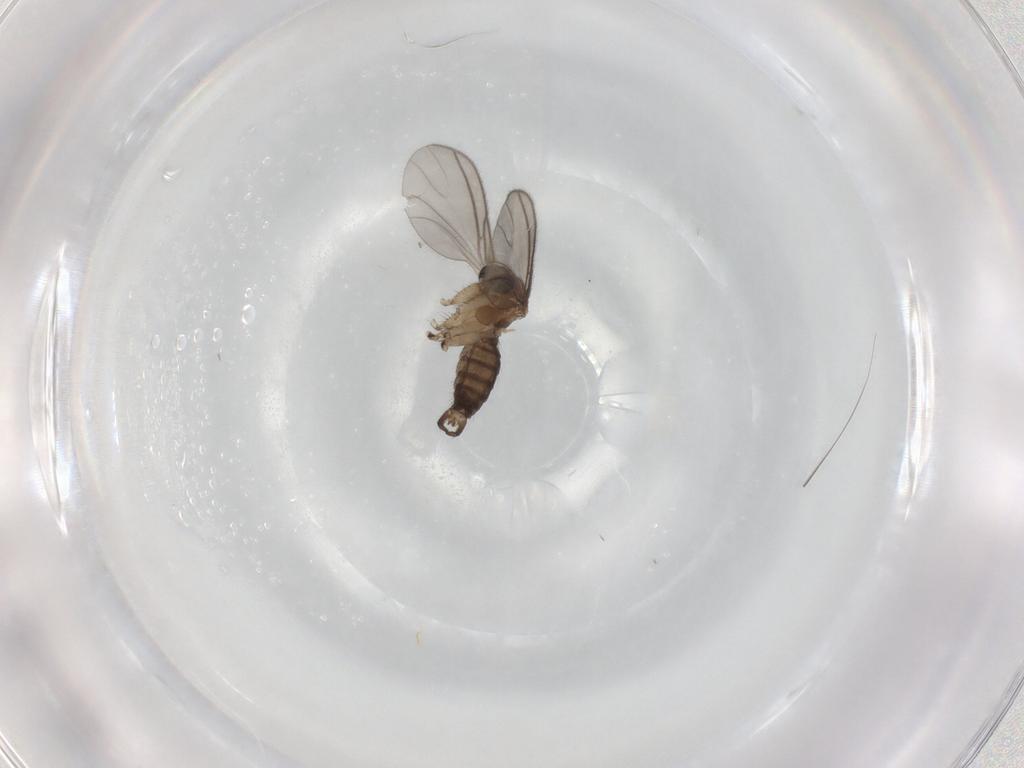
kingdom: Animalia
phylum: Arthropoda
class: Insecta
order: Diptera
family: Sciaridae
